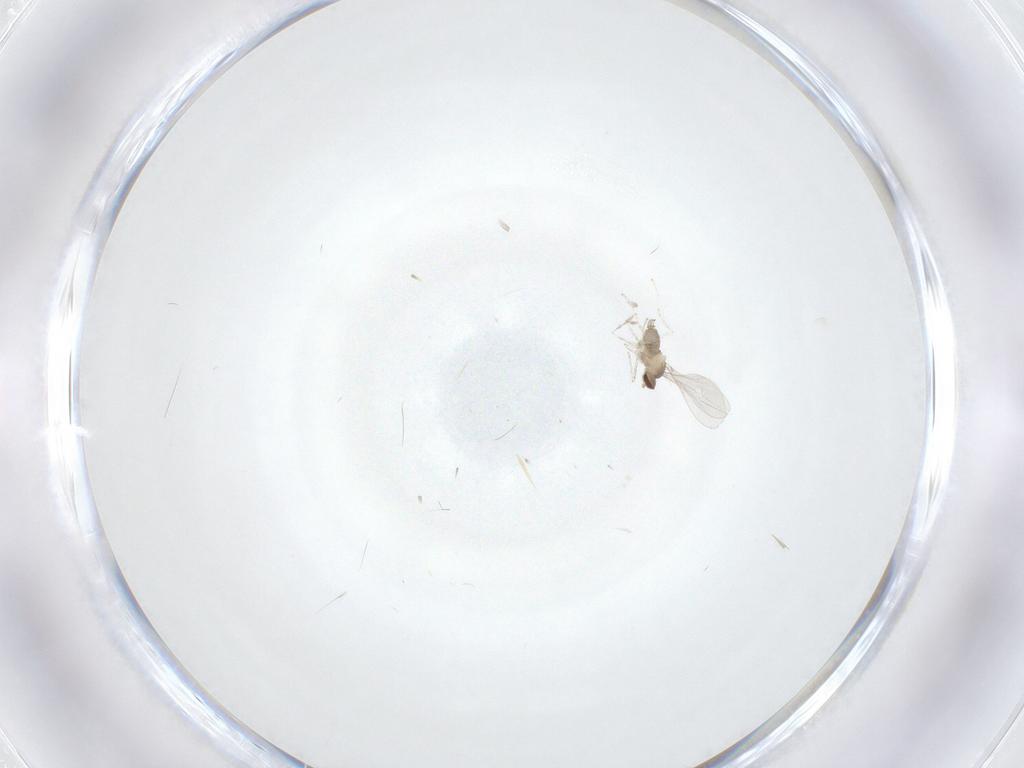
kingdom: Animalia
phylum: Arthropoda
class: Insecta
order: Diptera
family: Cecidomyiidae
